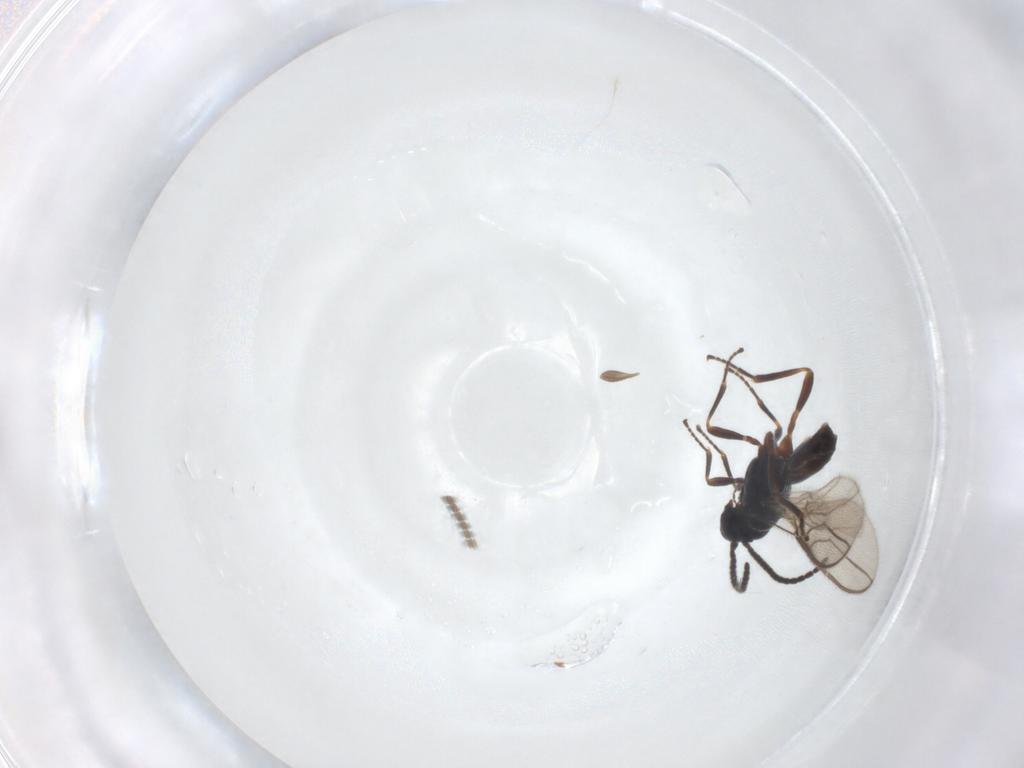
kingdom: Animalia
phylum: Arthropoda
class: Insecta
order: Hymenoptera
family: Braconidae
